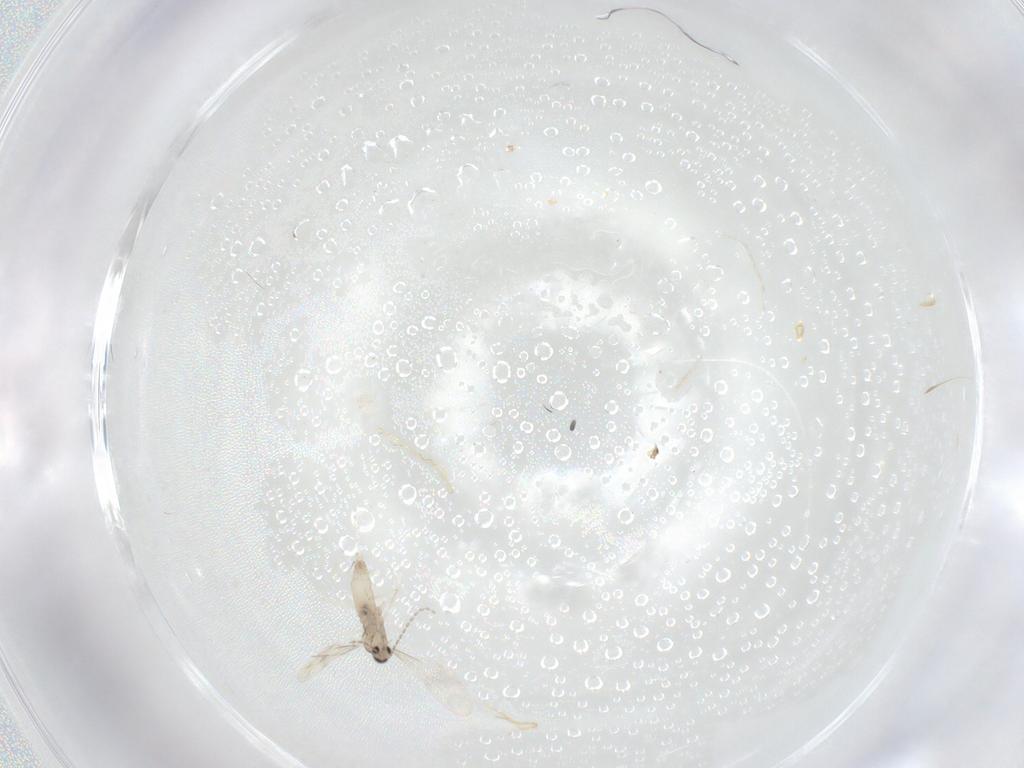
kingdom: Animalia
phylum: Arthropoda
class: Insecta
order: Diptera
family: Cecidomyiidae
